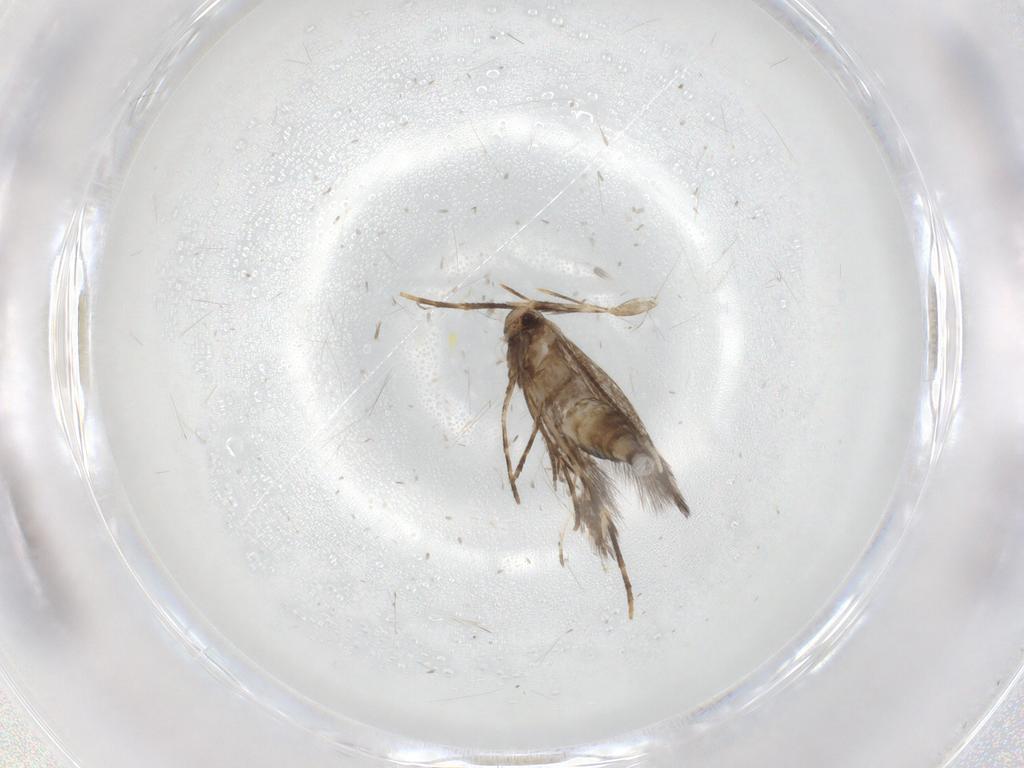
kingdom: Animalia
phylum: Arthropoda
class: Insecta
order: Lepidoptera
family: Gracillariidae
